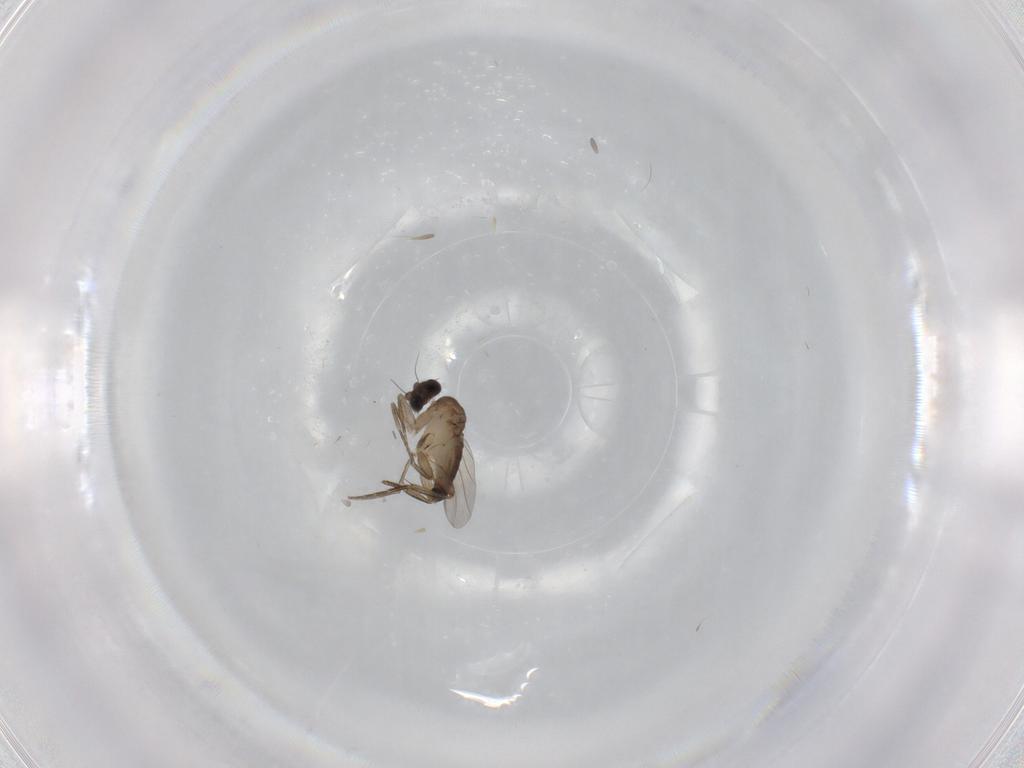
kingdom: Animalia
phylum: Arthropoda
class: Insecta
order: Diptera
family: Phoridae
